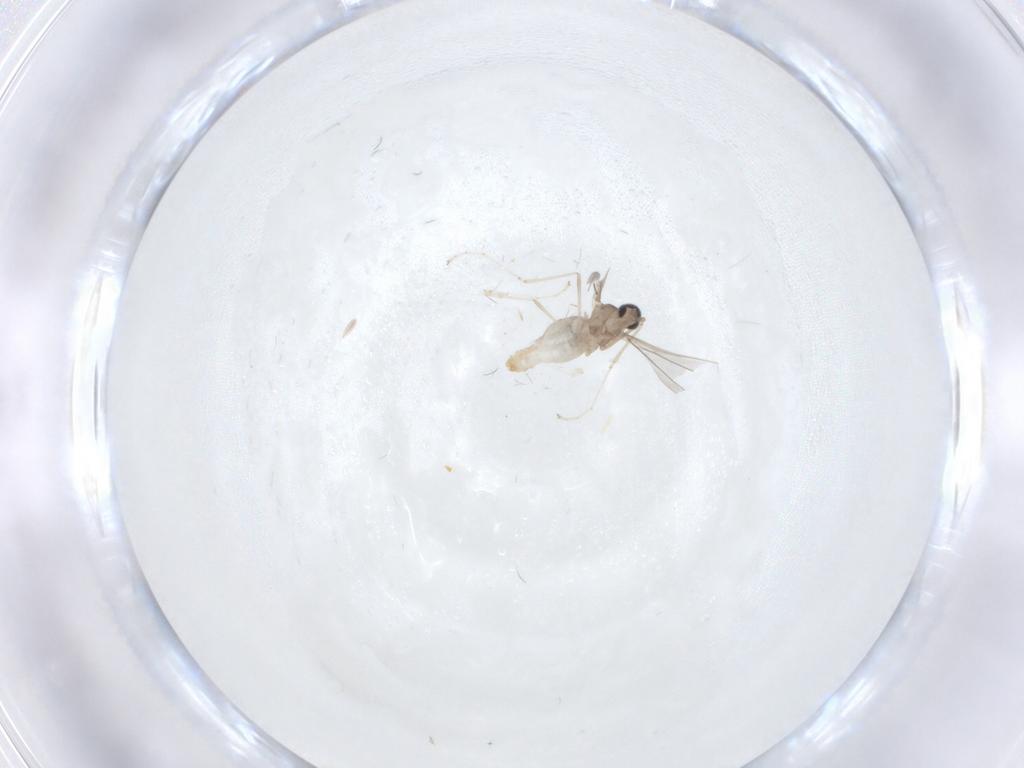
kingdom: Animalia
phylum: Arthropoda
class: Insecta
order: Diptera
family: Cecidomyiidae
